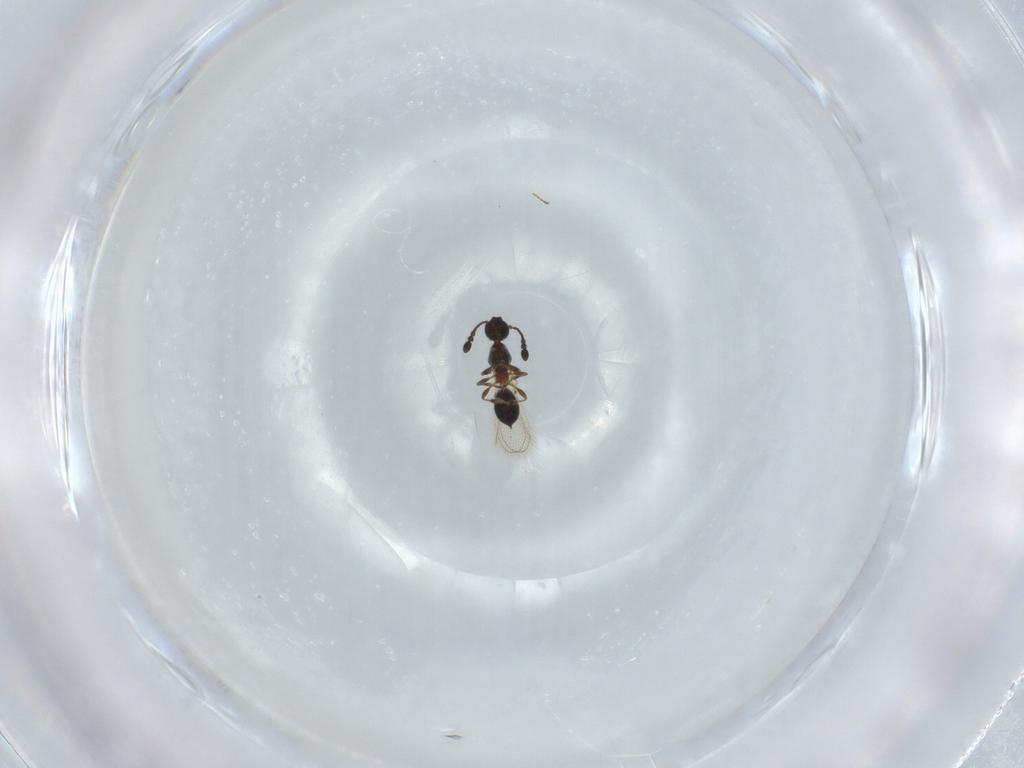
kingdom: Animalia
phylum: Arthropoda
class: Insecta
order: Hymenoptera
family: Diapriidae
